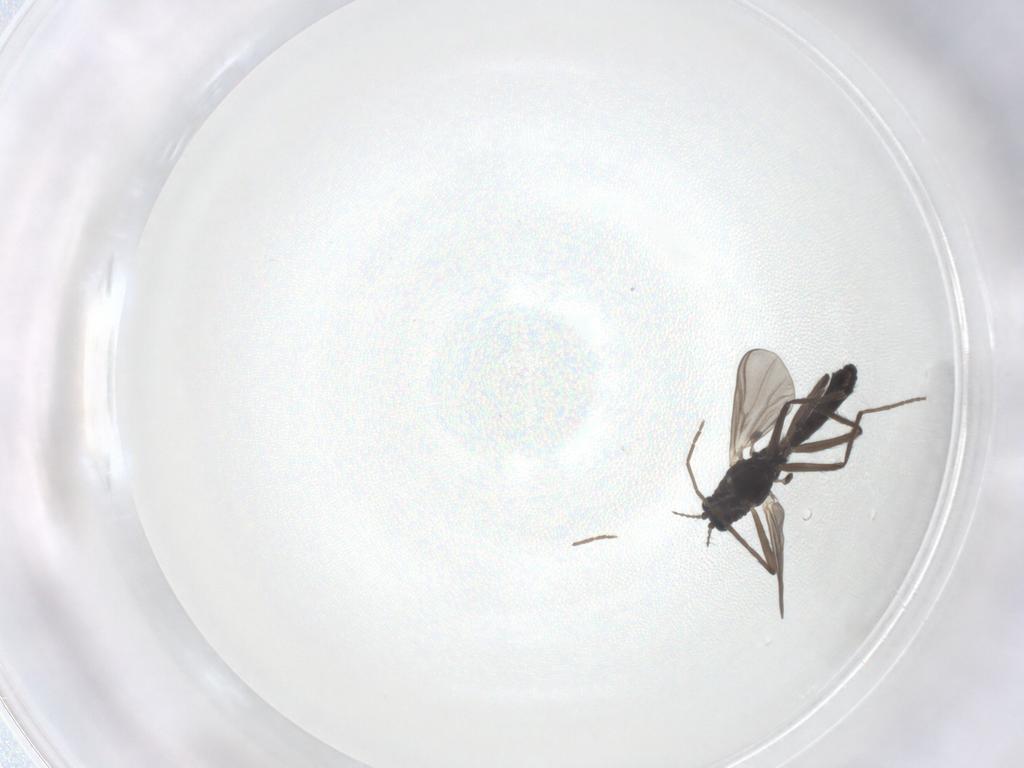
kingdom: Animalia
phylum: Arthropoda
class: Insecta
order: Diptera
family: Chironomidae
